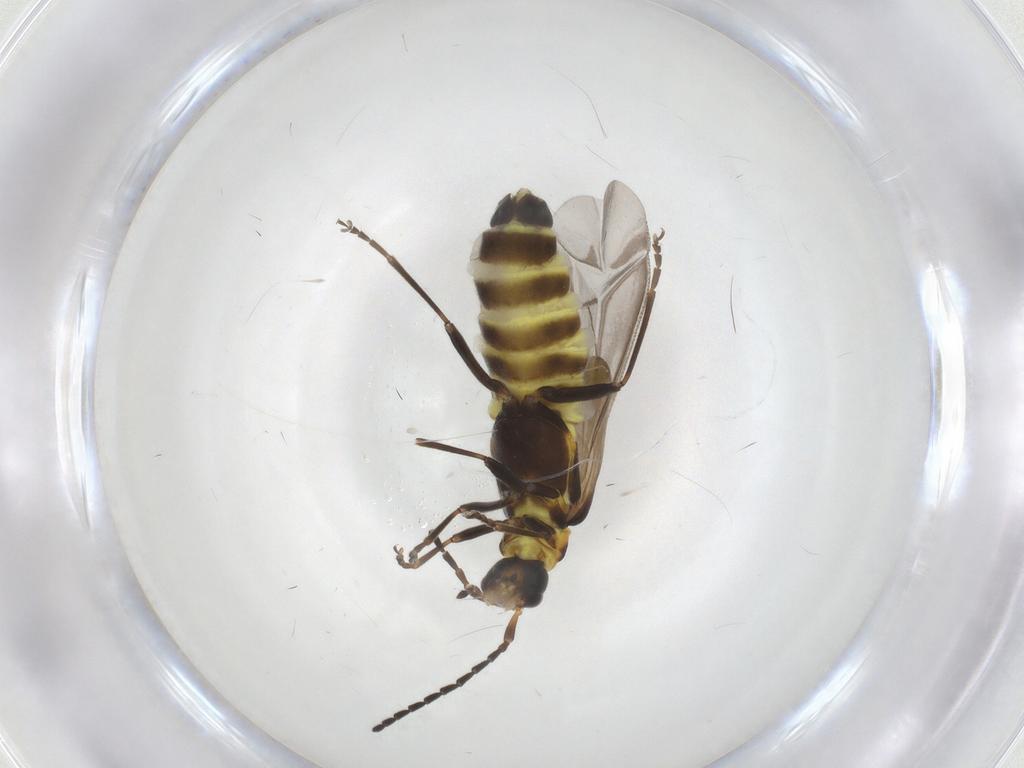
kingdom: Animalia
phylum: Arthropoda
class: Insecta
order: Coleoptera
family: Cantharidae
